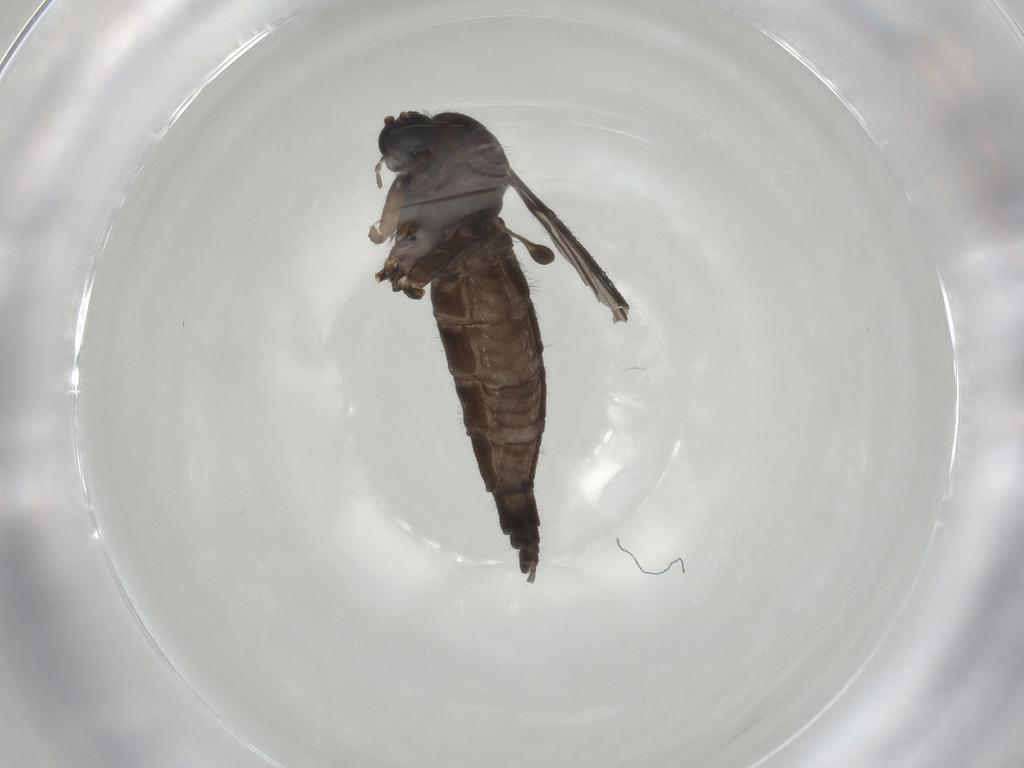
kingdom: Animalia
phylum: Arthropoda
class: Insecta
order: Diptera
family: Sciaridae
